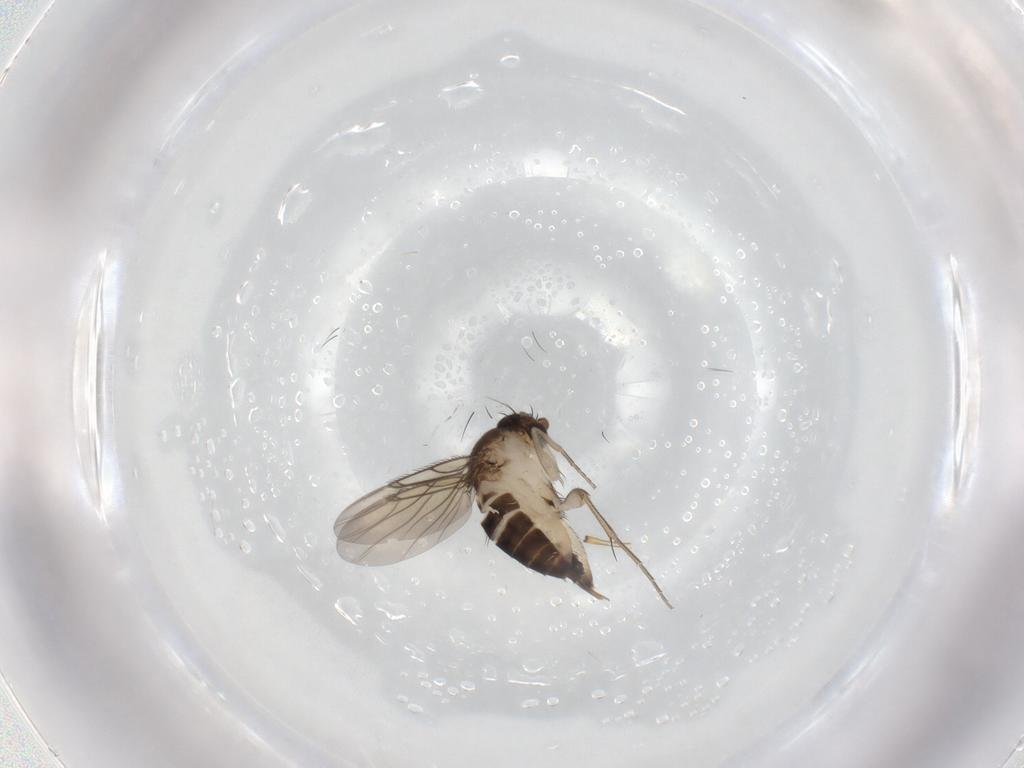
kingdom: Animalia
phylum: Arthropoda
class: Insecta
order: Diptera
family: Phoridae
